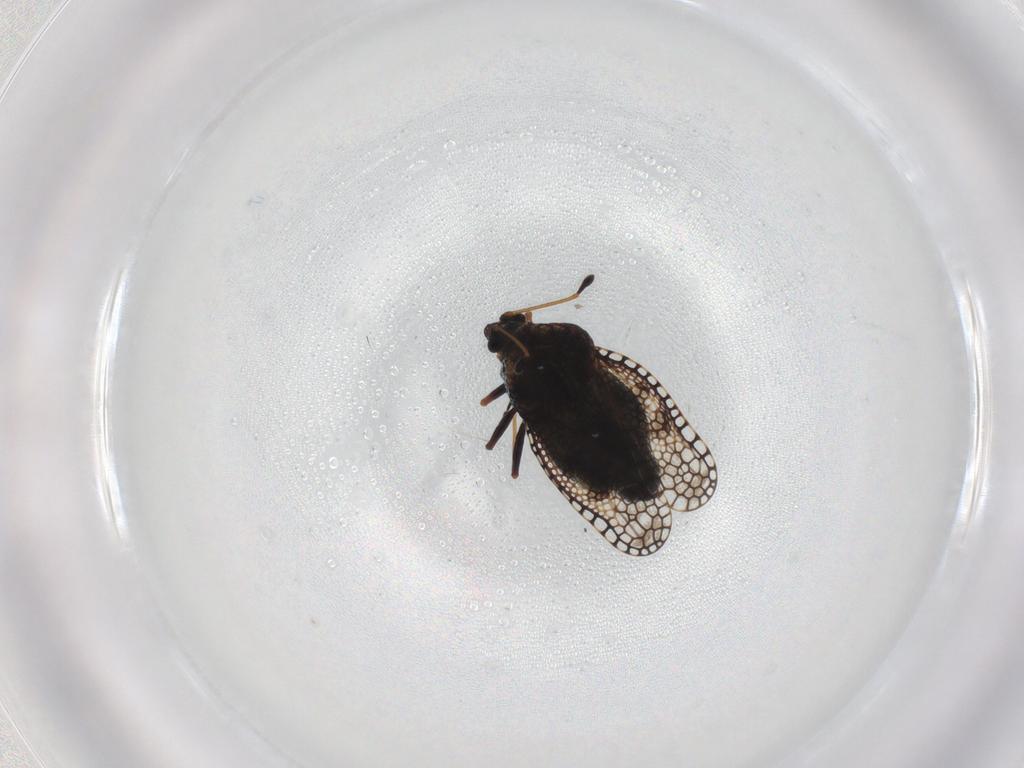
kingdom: Animalia
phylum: Arthropoda
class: Insecta
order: Hemiptera
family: Tingidae
